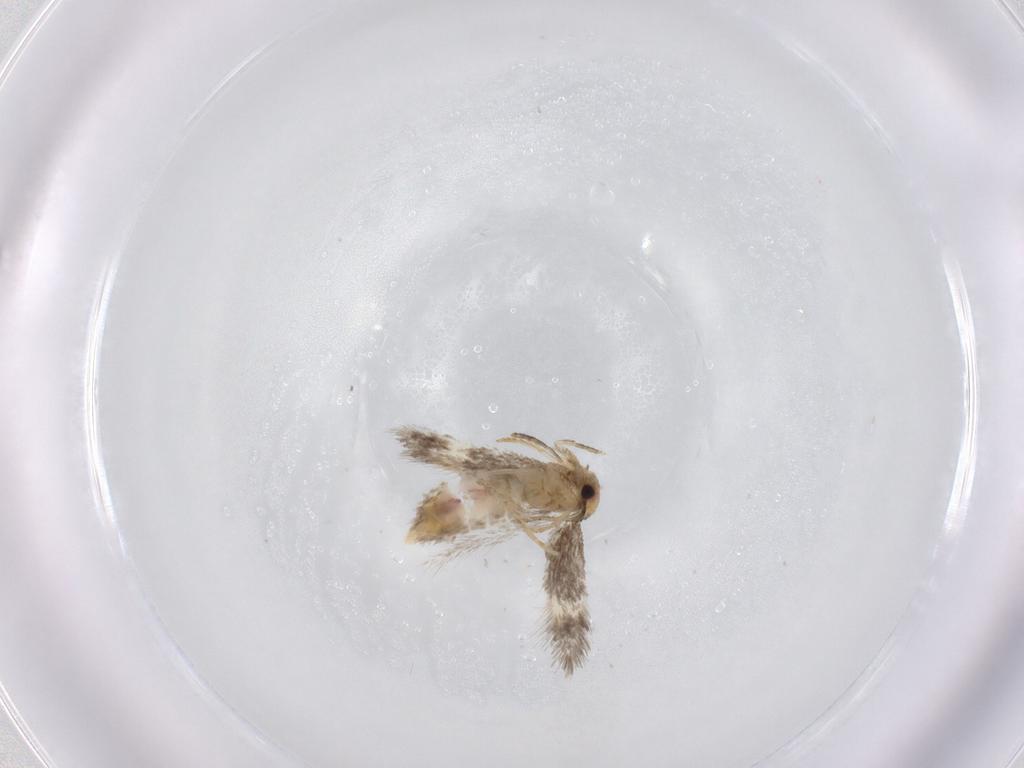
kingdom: Animalia
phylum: Arthropoda
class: Insecta
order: Lepidoptera
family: Nepticulidae
